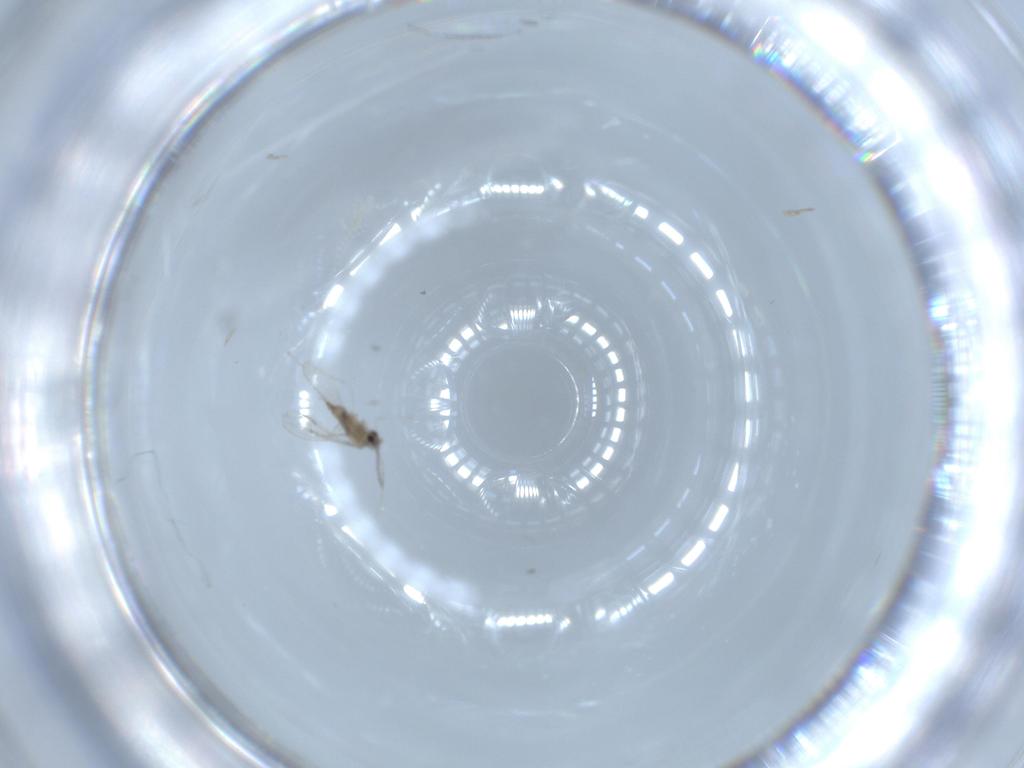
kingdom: Animalia
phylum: Arthropoda
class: Insecta
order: Diptera
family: Cecidomyiidae
